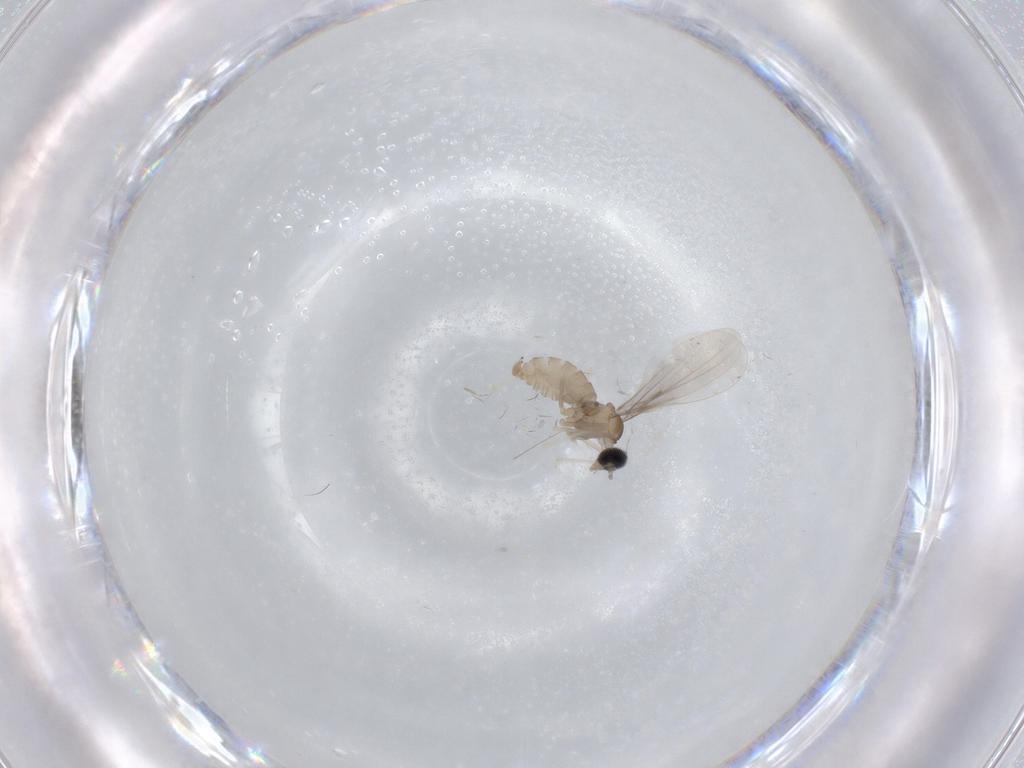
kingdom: Animalia
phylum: Arthropoda
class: Insecta
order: Diptera
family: Cecidomyiidae
